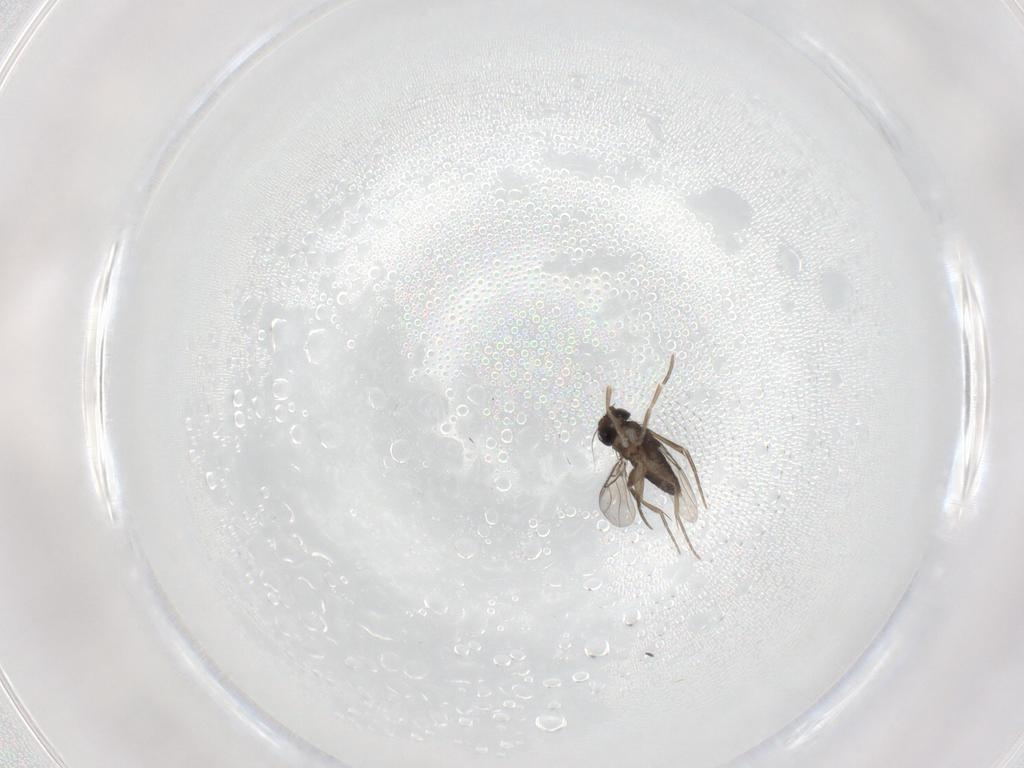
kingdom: Animalia
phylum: Arthropoda
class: Insecta
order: Diptera
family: Phoridae
